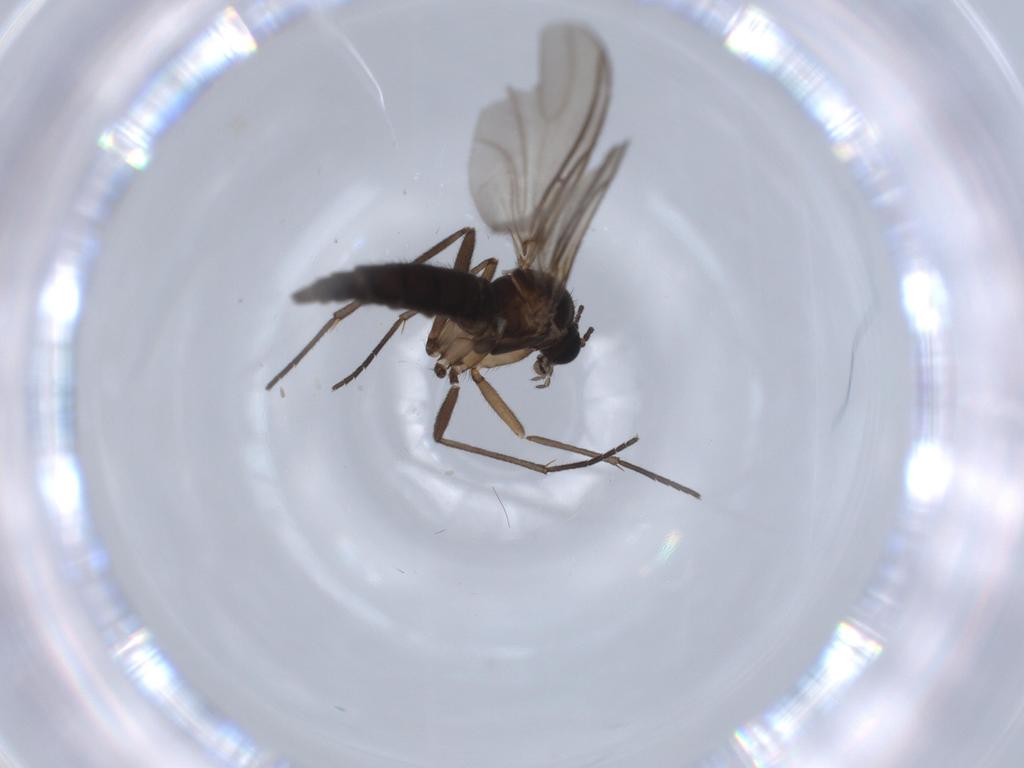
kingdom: Animalia
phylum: Arthropoda
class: Insecta
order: Diptera
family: Sciaridae
